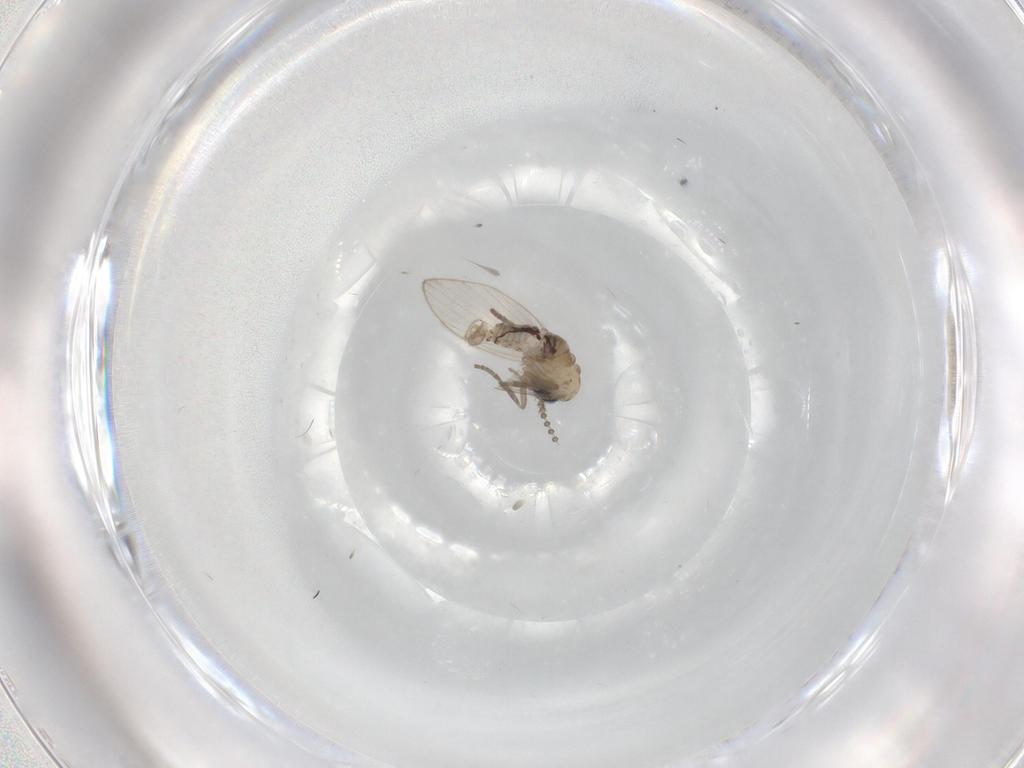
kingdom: Animalia
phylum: Arthropoda
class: Insecta
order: Diptera
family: Psychodidae
